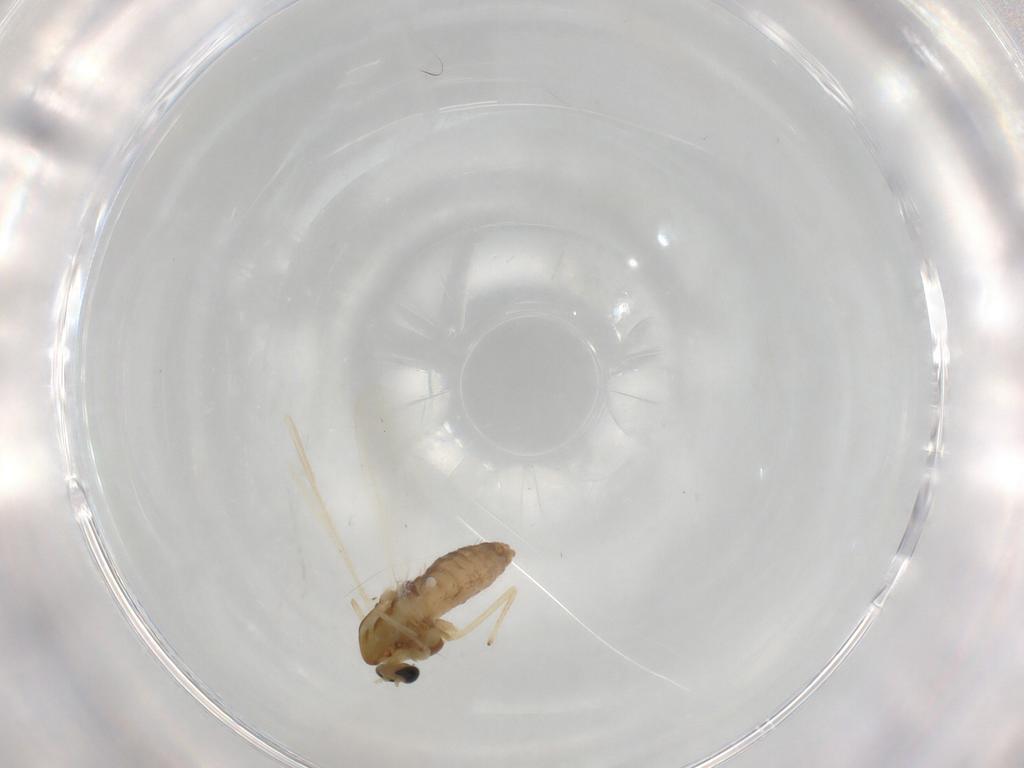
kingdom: Animalia
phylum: Arthropoda
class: Insecta
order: Diptera
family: Chironomidae
